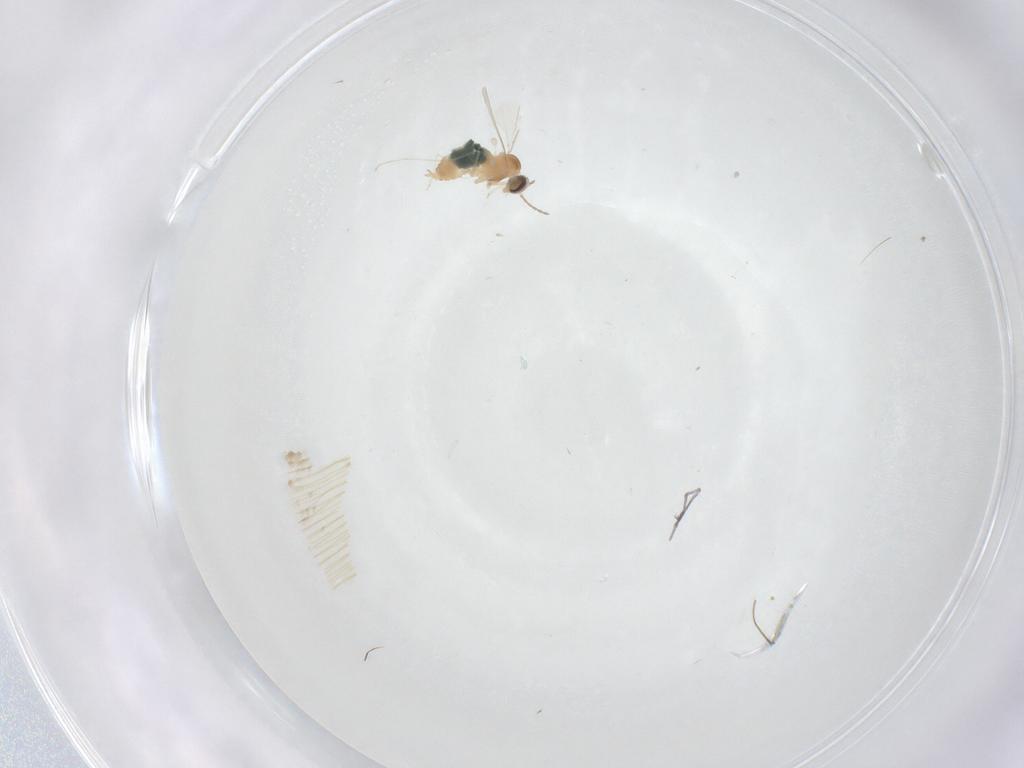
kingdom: Animalia
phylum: Arthropoda
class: Insecta
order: Diptera
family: Cecidomyiidae
